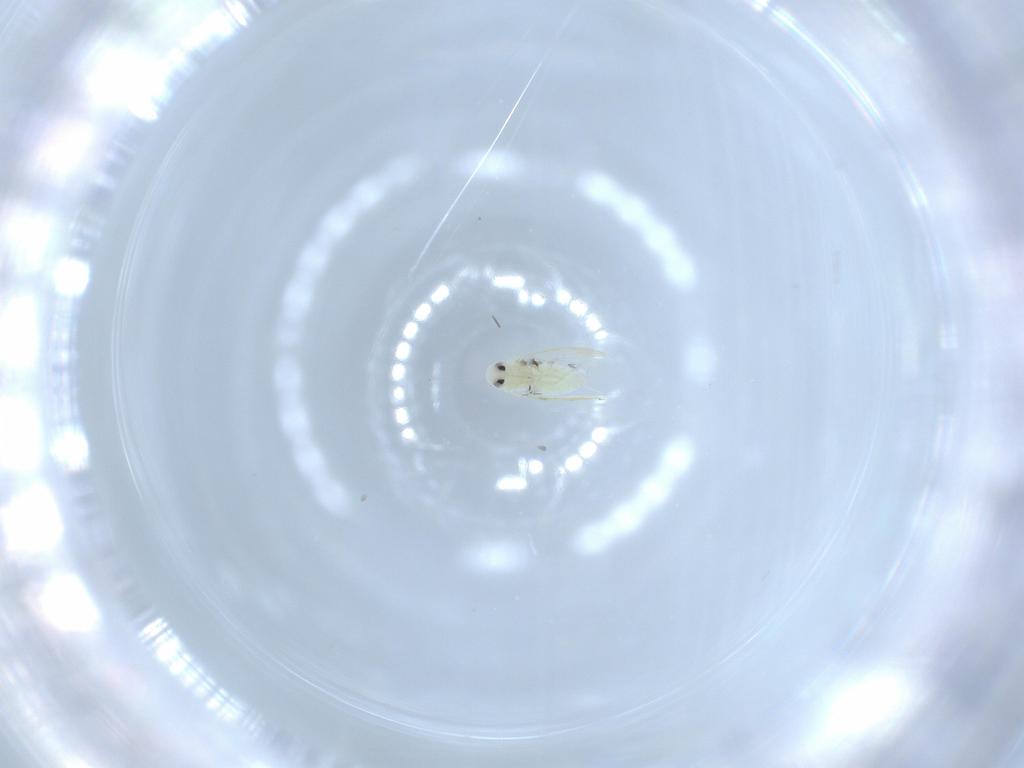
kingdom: Animalia
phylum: Arthropoda
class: Insecta
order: Hemiptera
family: Aleyrodidae
